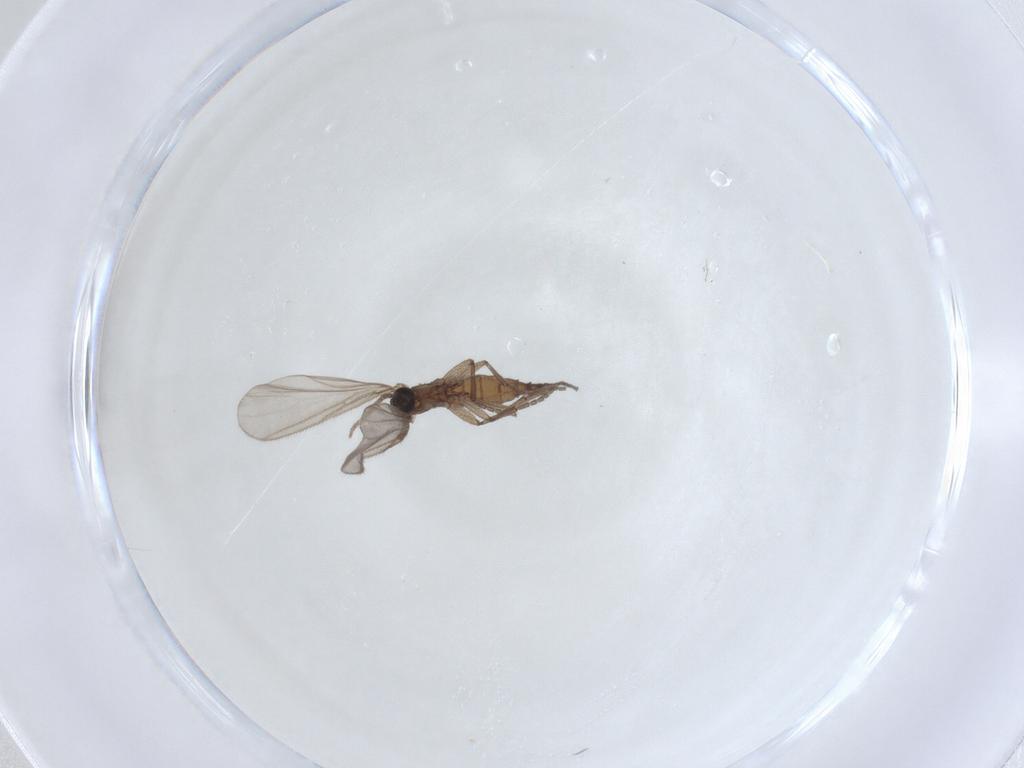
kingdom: Animalia
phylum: Arthropoda
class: Insecta
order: Diptera
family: Sciaridae
